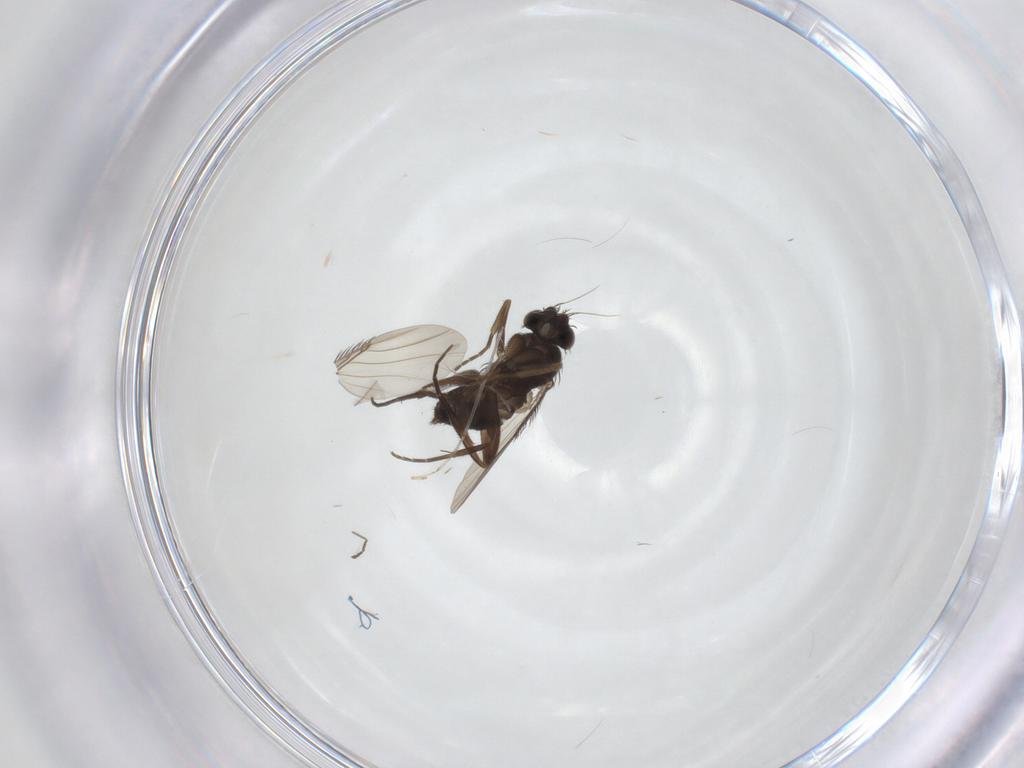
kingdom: Animalia
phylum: Arthropoda
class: Insecta
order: Diptera
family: Phoridae
